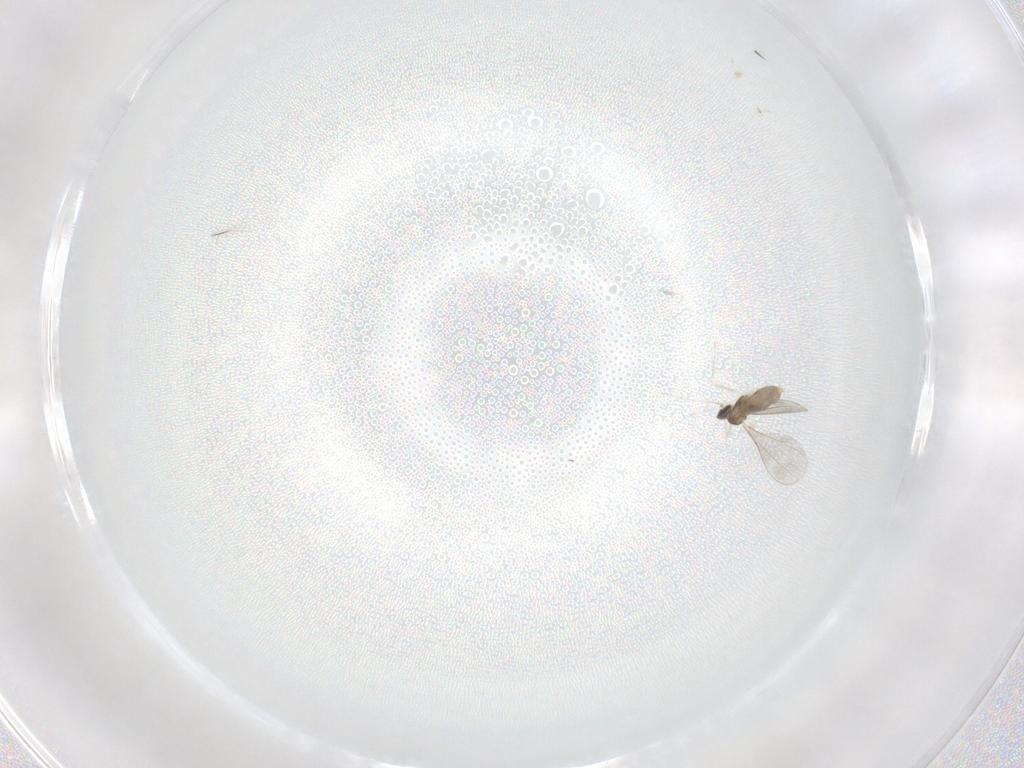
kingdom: Animalia
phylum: Arthropoda
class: Insecta
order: Diptera
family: Cecidomyiidae
